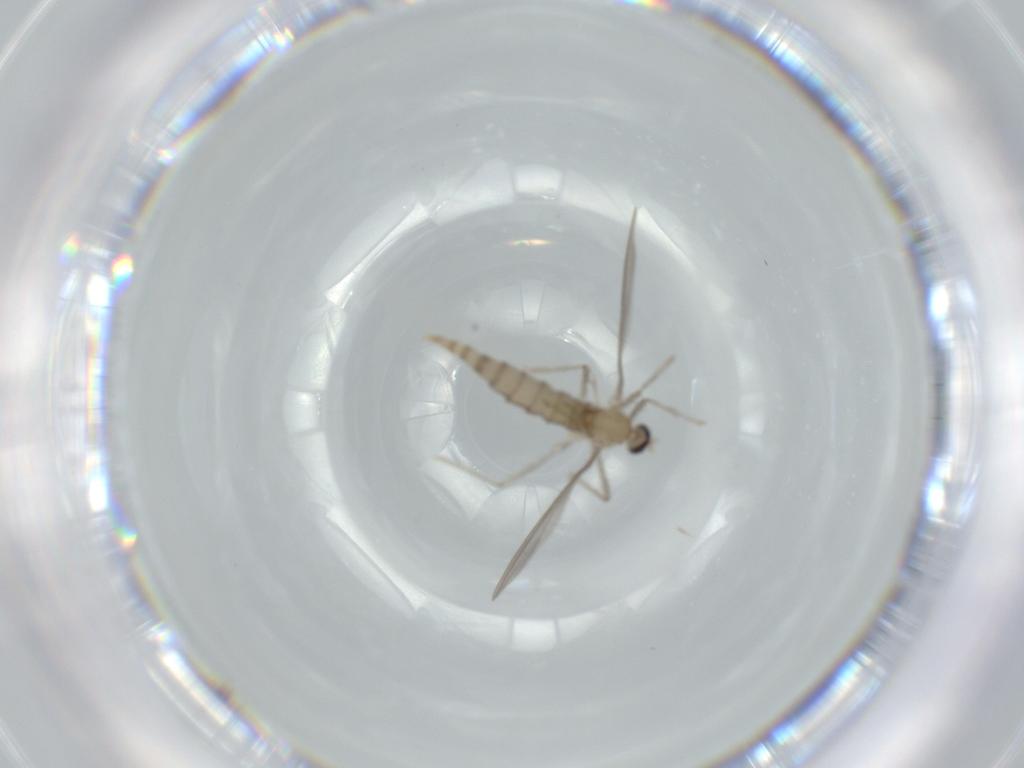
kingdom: Animalia
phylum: Arthropoda
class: Insecta
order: Diptera
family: Cecidomyiidae
